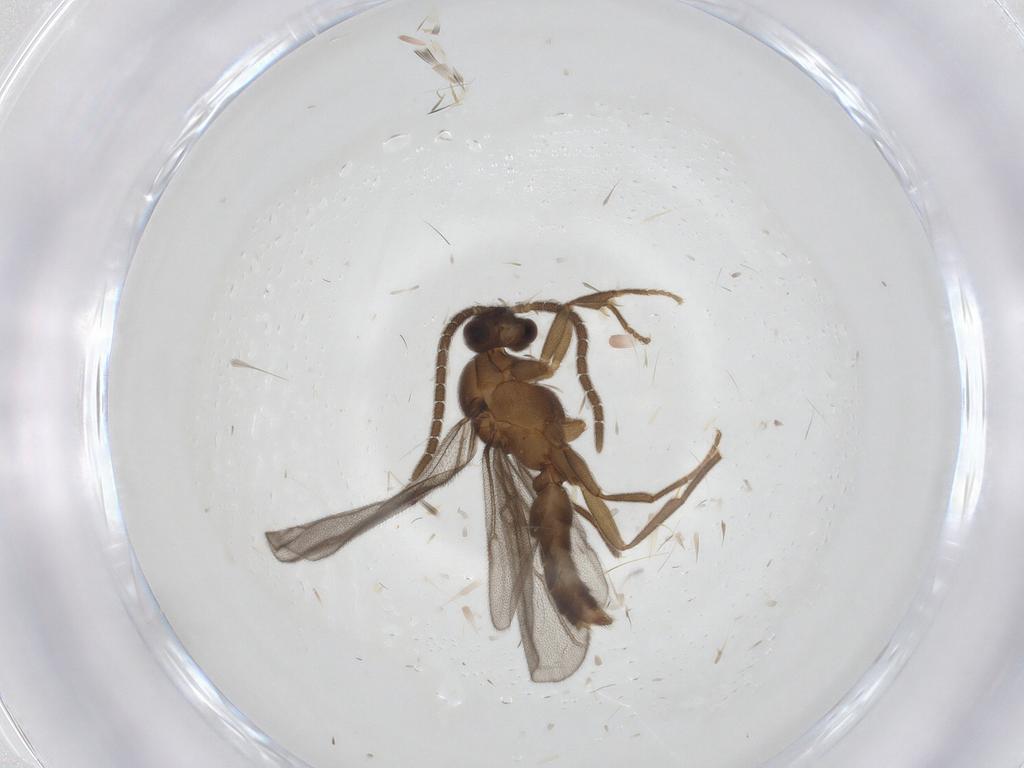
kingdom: Animalia
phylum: Arthropoda
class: Insecta
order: Hymenoptera
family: Formicidae
